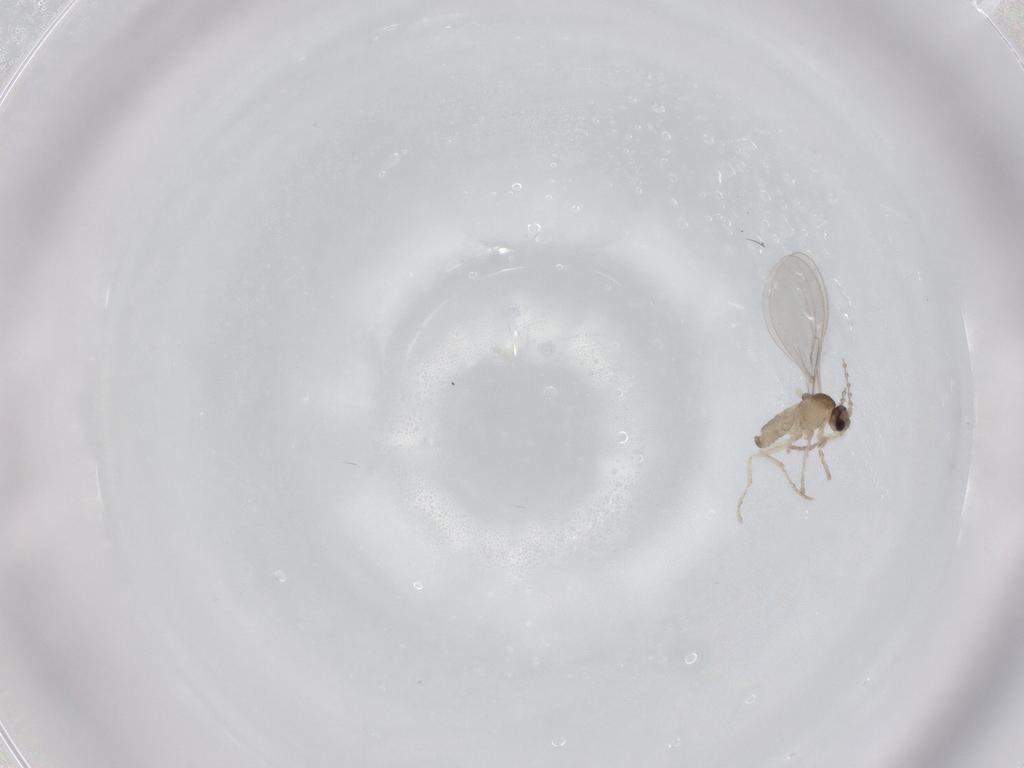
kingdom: Animalia
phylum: Arthropoda
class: Insecta
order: Diptera
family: Cecidomyiidae
